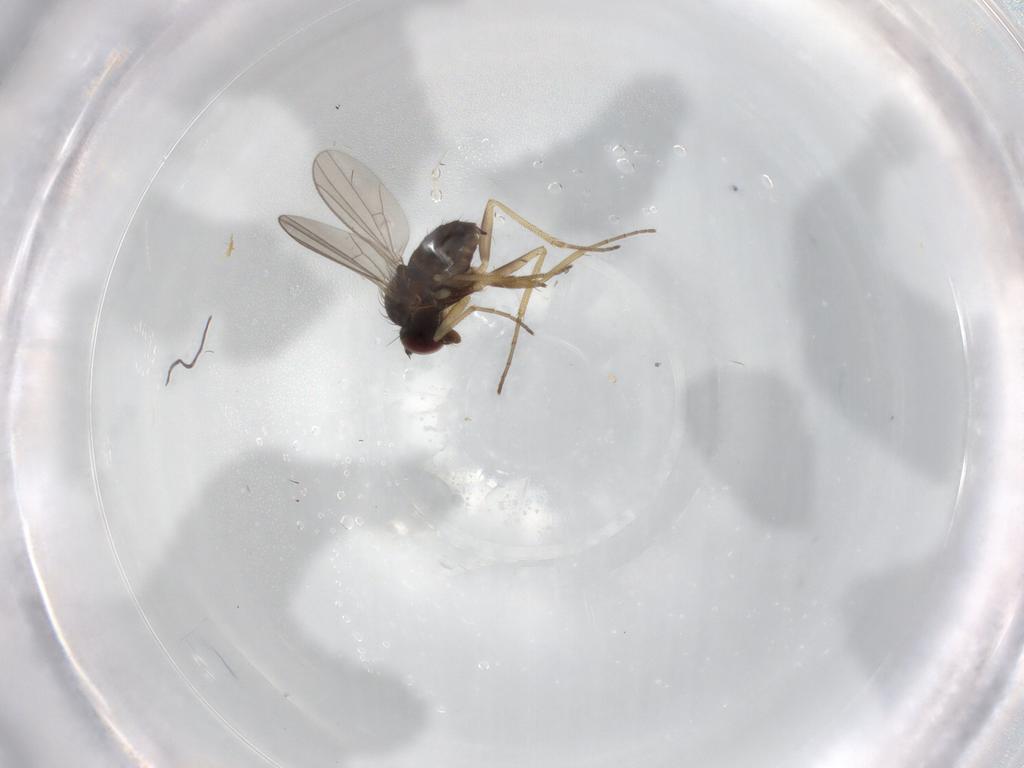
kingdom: Animalia
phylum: Arthropoda
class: Insecta
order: Diptera
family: Dolichopodidae
